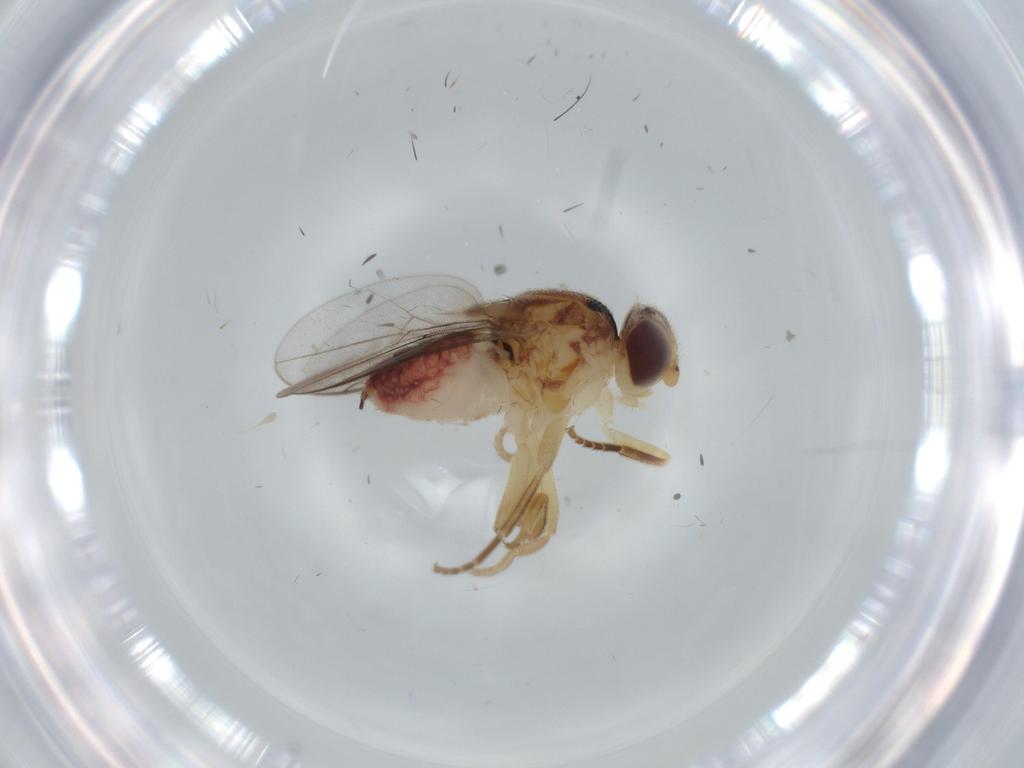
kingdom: Animalia
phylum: Arthropoda
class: Insecta
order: Diptera
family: Chloropidae
